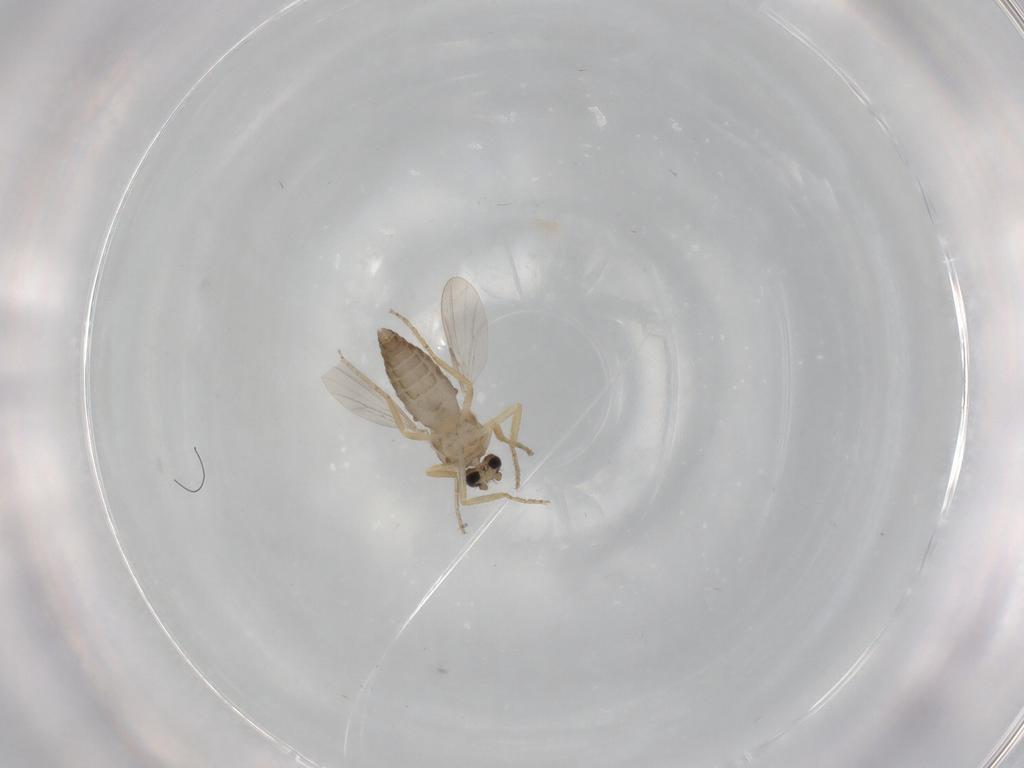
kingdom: Animalia
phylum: Arthropoda
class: Insecta
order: Diptera
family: Ceratopogonidae
